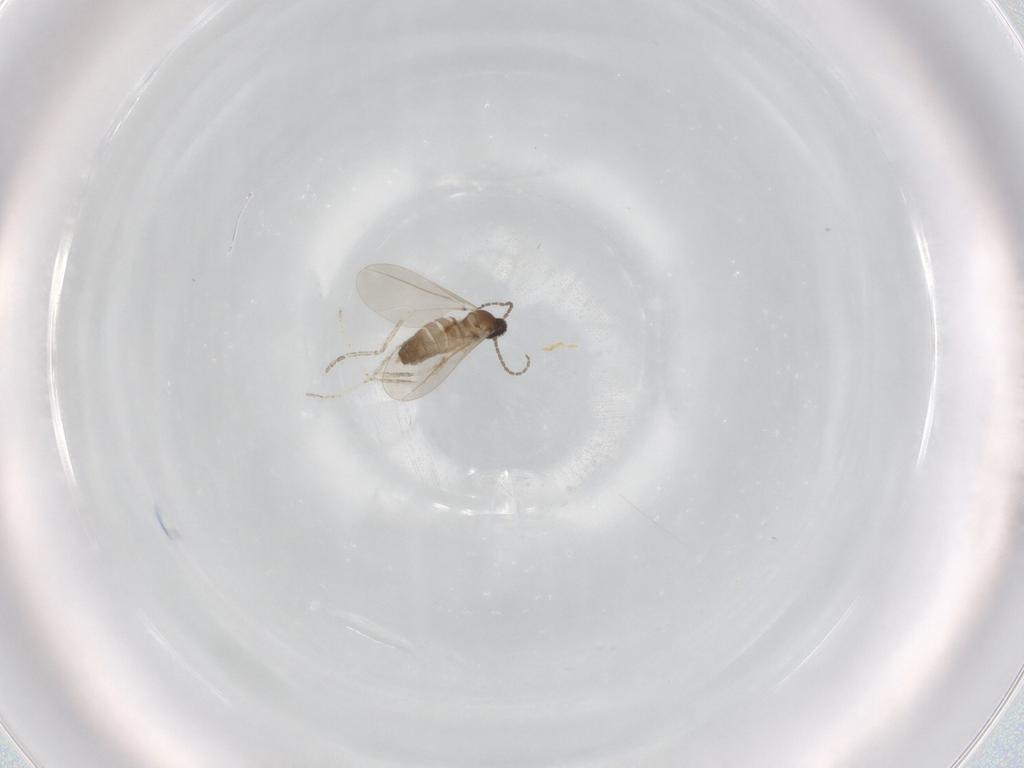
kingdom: Animalia
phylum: Arthropoda
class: Insecta
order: Diptera
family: Cecidomyiidae
